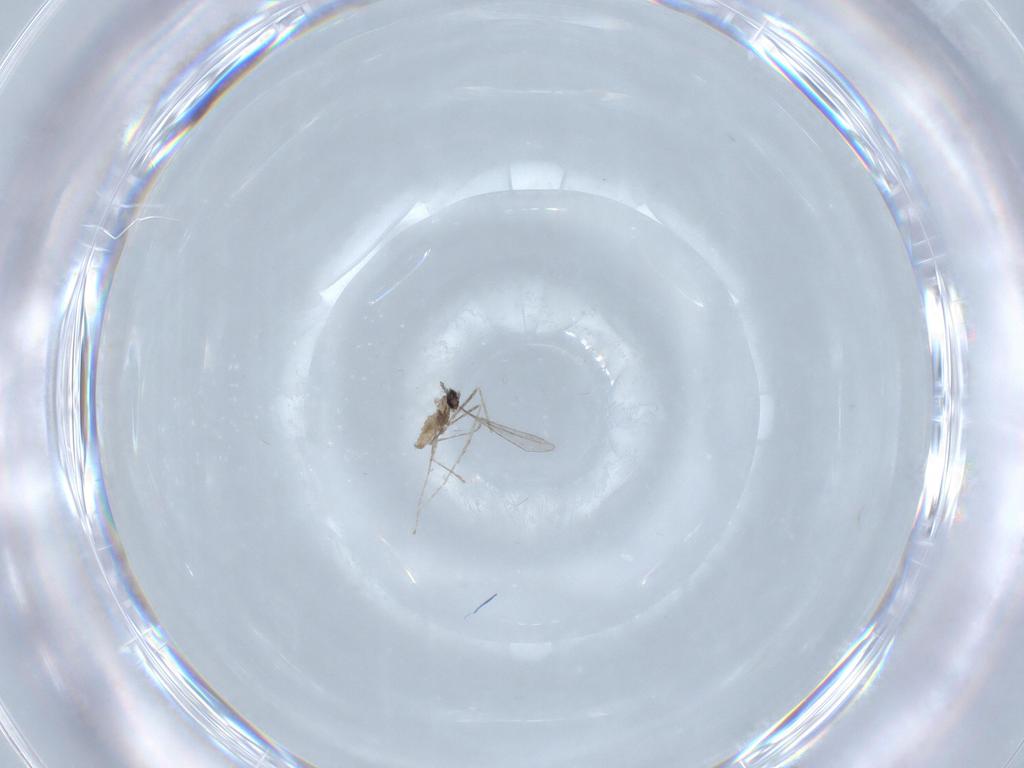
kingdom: Animalia
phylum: Arthropoda
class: Insecta
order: Diptera
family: Cecidomyiidae
